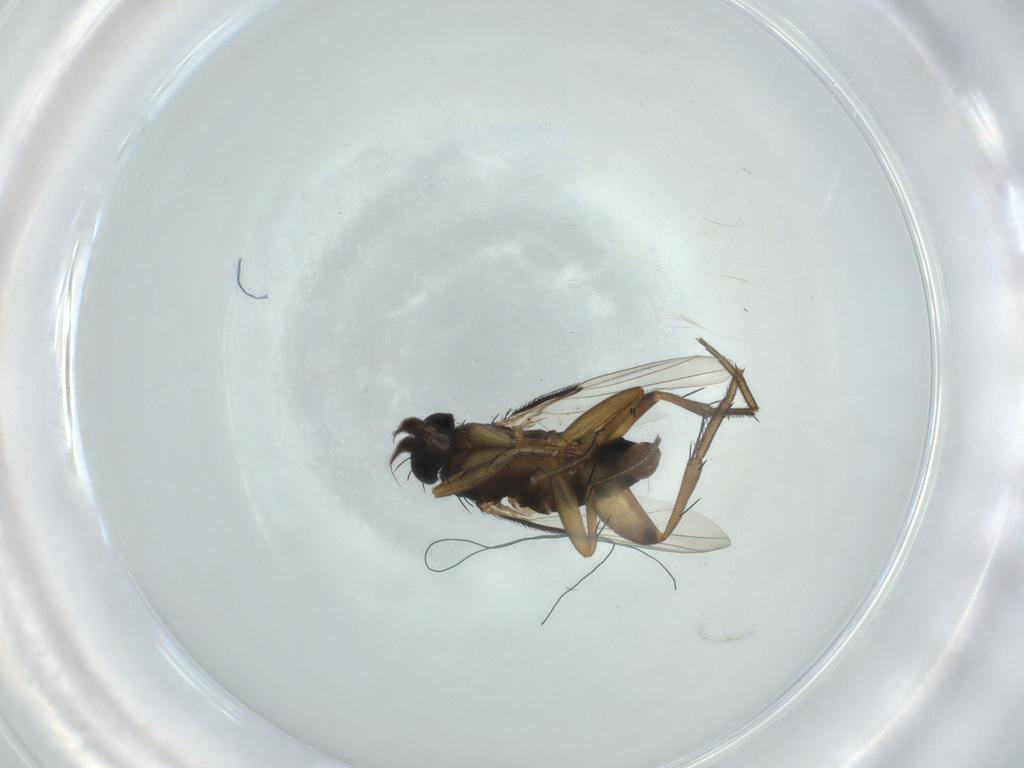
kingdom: Animalia
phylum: Arthropoda
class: Insecta
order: Diptera
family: Phoridae
